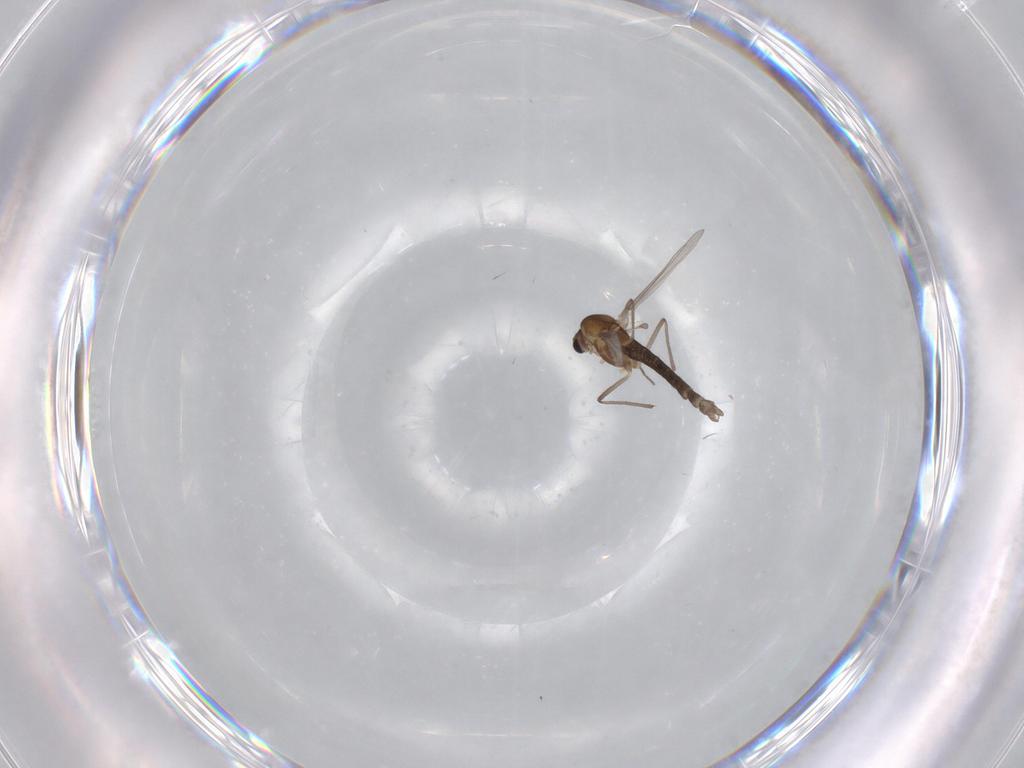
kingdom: Animalia
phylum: Arthropoda
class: Insecta
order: Diptera
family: Chironomidae
